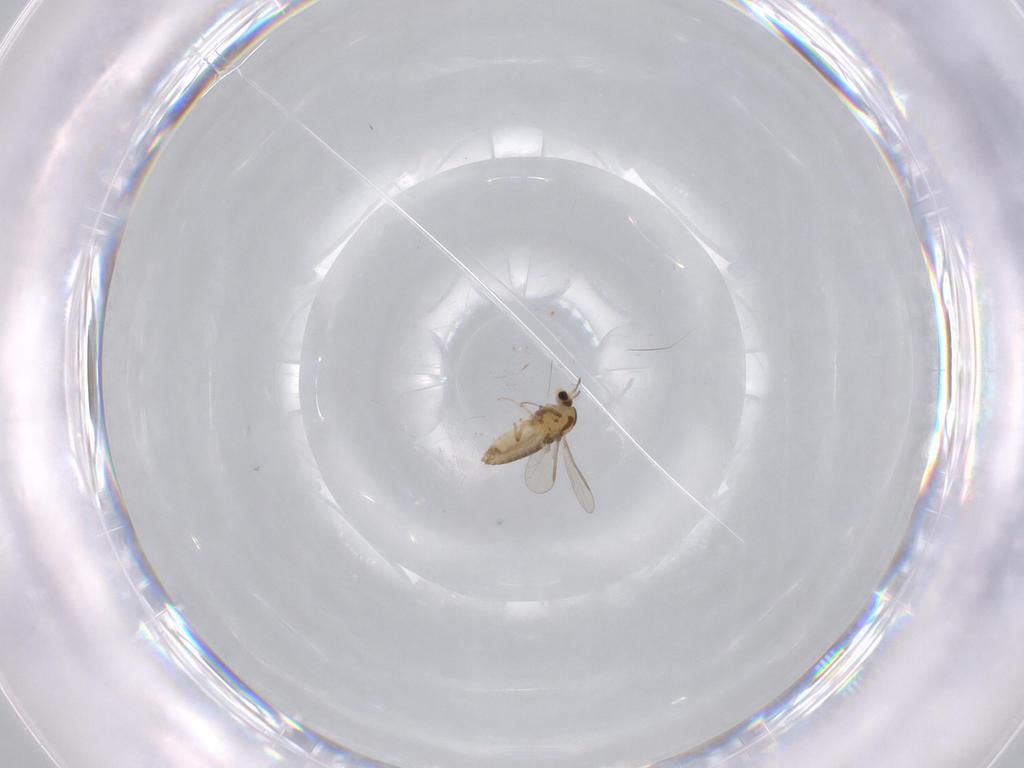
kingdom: Animalia
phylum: Arthropoda
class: Insecta
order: Diptera
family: Chironomidae
